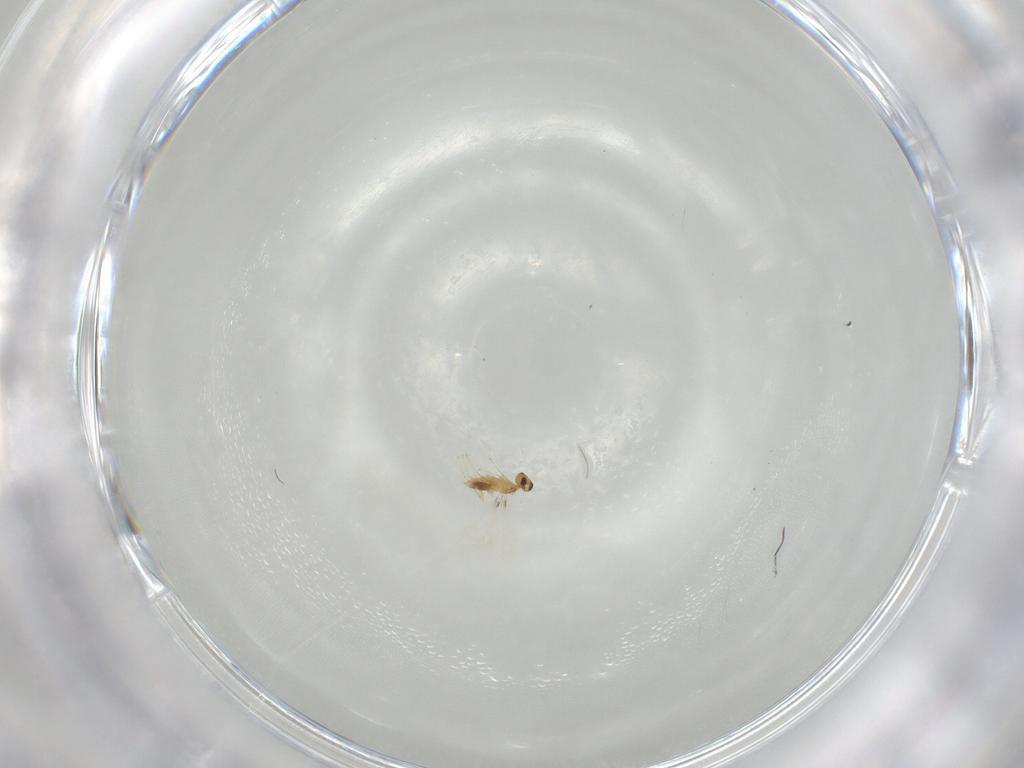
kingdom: Animalia
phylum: Arthropoda
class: Insecta
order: Hymenoptera
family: Mymaridae
